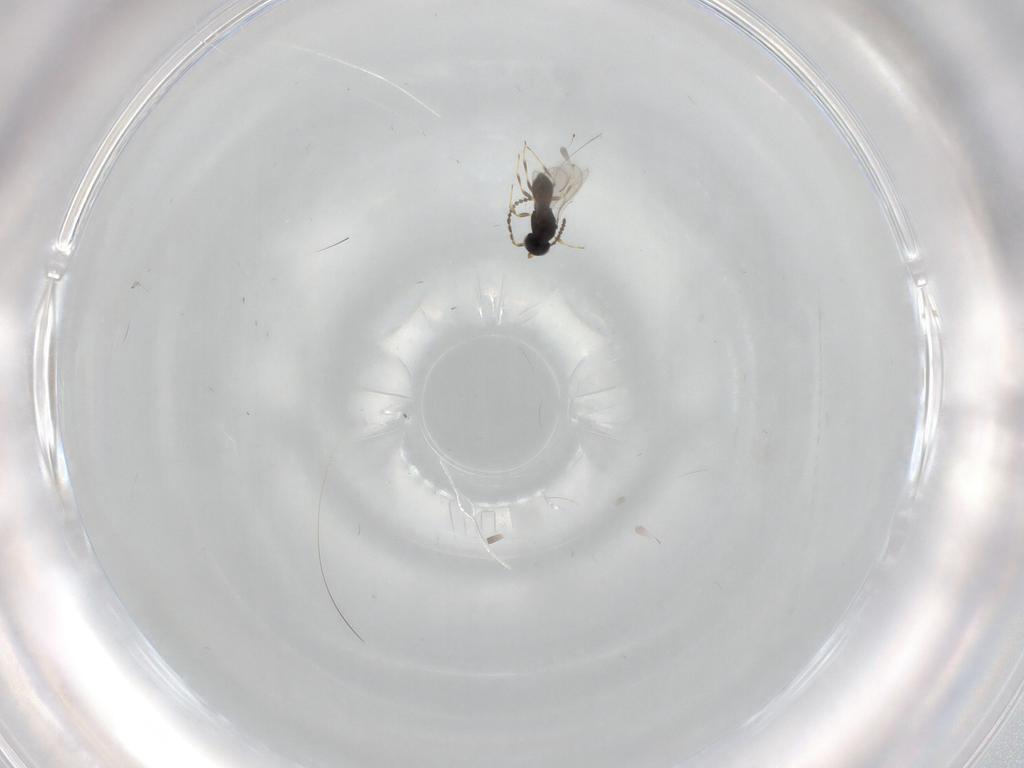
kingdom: Animalia
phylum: Arthropoda
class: Insecta
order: Hymenoptera
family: Scelionidae
